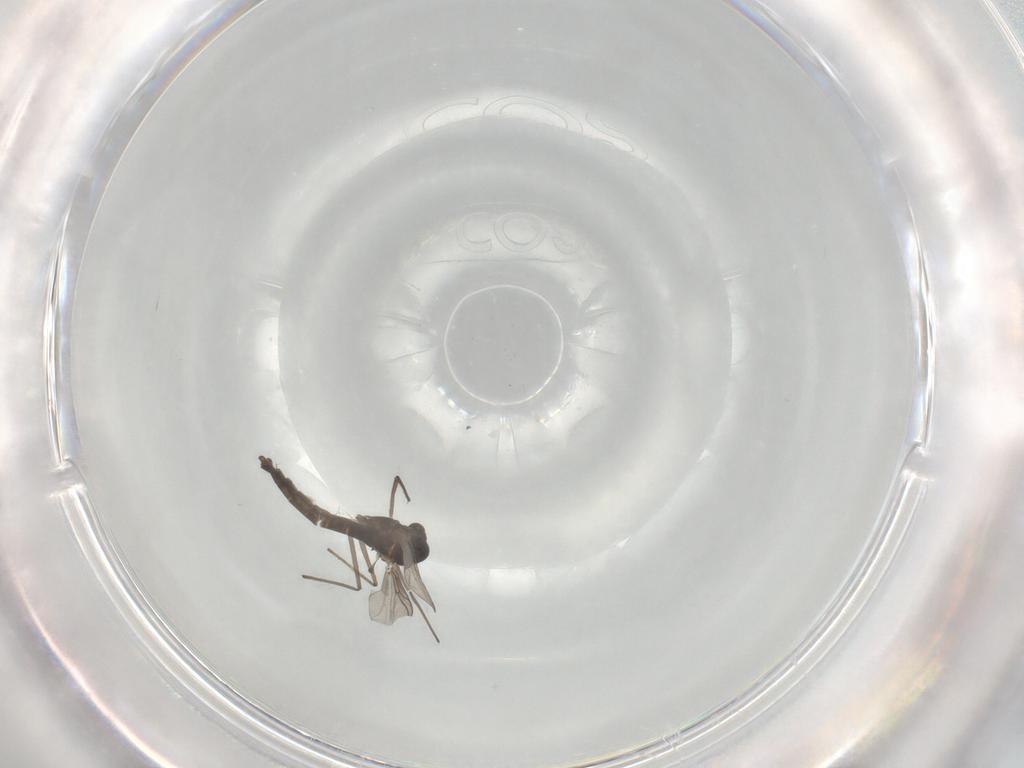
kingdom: Animalia
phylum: Arthropoda
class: Insecta
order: Diptera
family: Chironomidae
